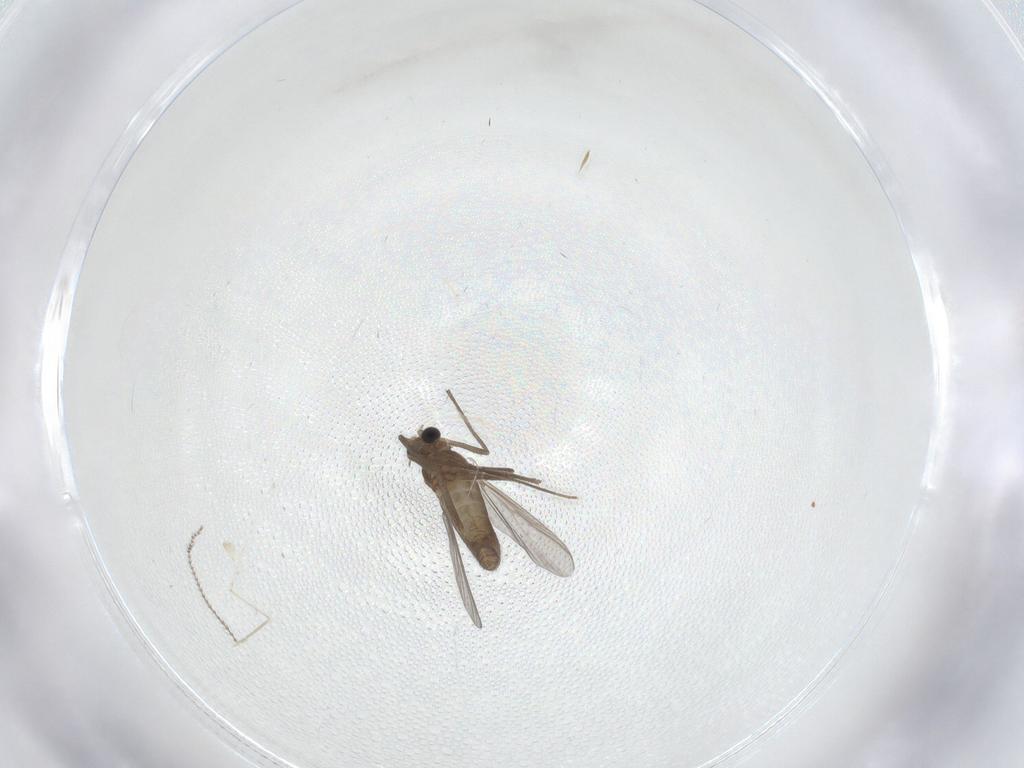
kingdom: Animalia
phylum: Arthropoda
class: Insecta
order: Diptera
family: Chironomidae
